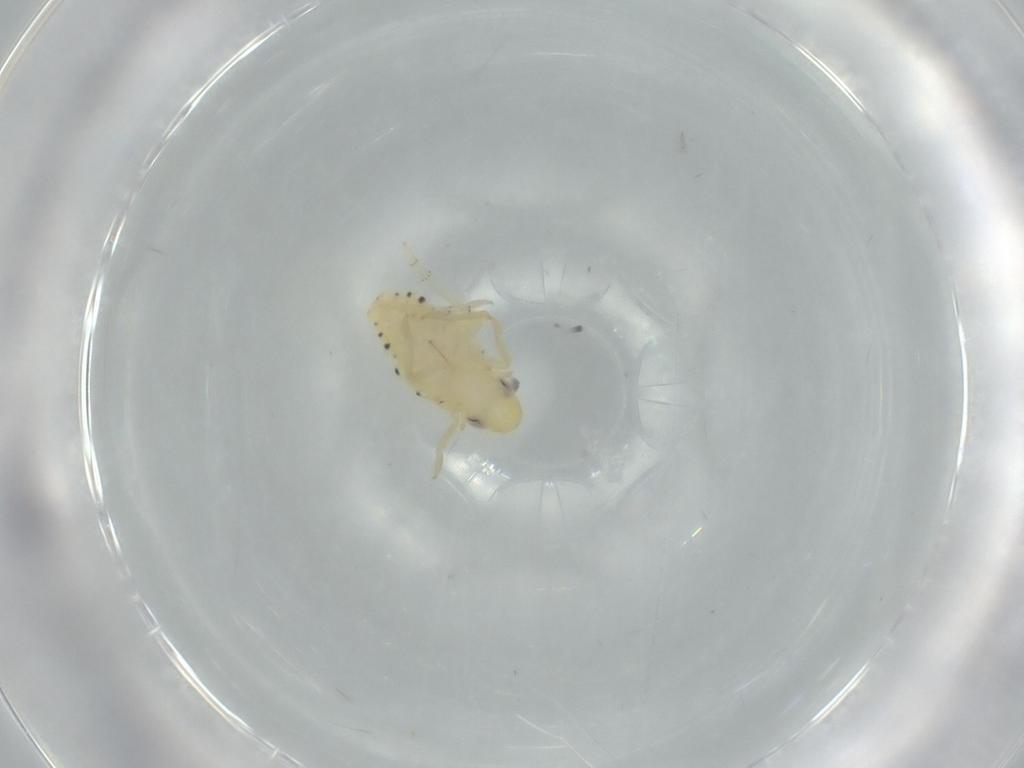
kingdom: Animalia
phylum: Arthropoda
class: Insecta
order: Hemiptera
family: Tropiduchidae
